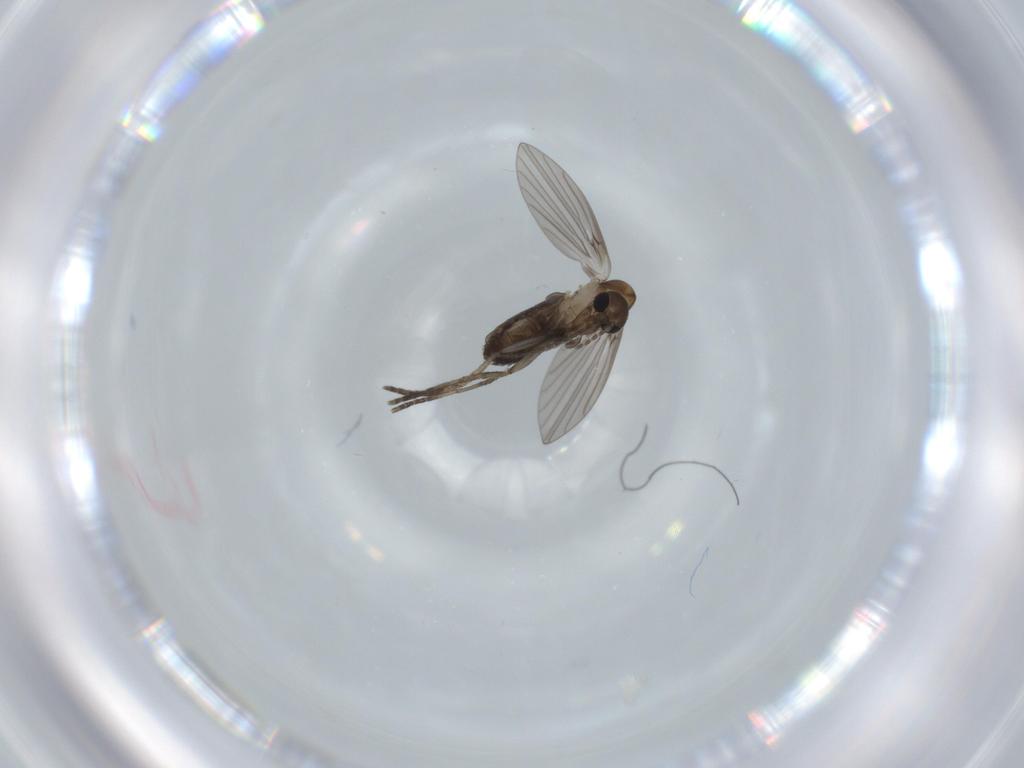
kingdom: Animalia
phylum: Arthropoda
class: Insecta
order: Diptera
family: Psychodidae
